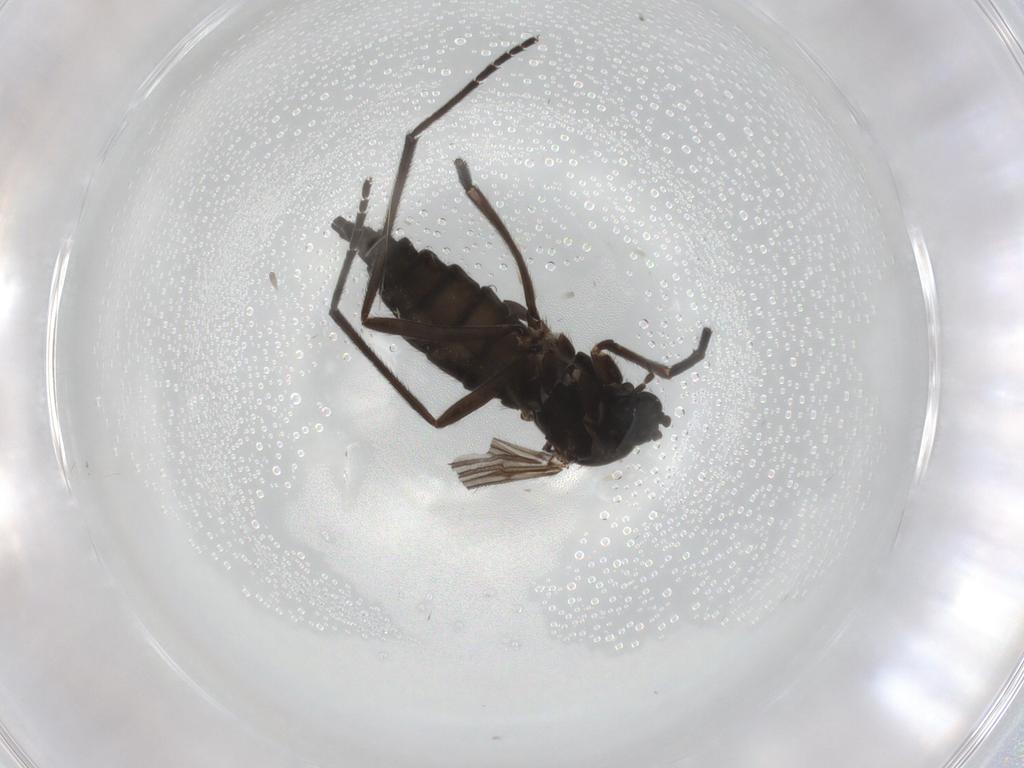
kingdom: Animalia
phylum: Arthropoda
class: Insecta
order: Diptera
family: Sciaridae
